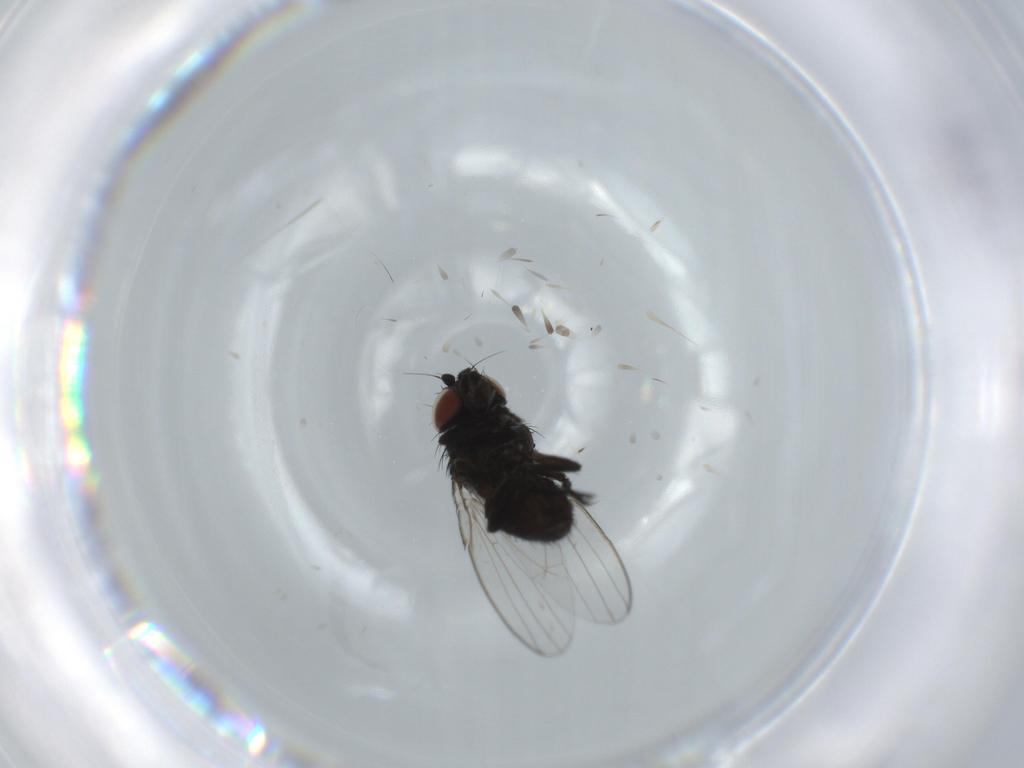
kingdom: Animalia
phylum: Arthropoda
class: Insecta
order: Diptera
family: Milichiidae
